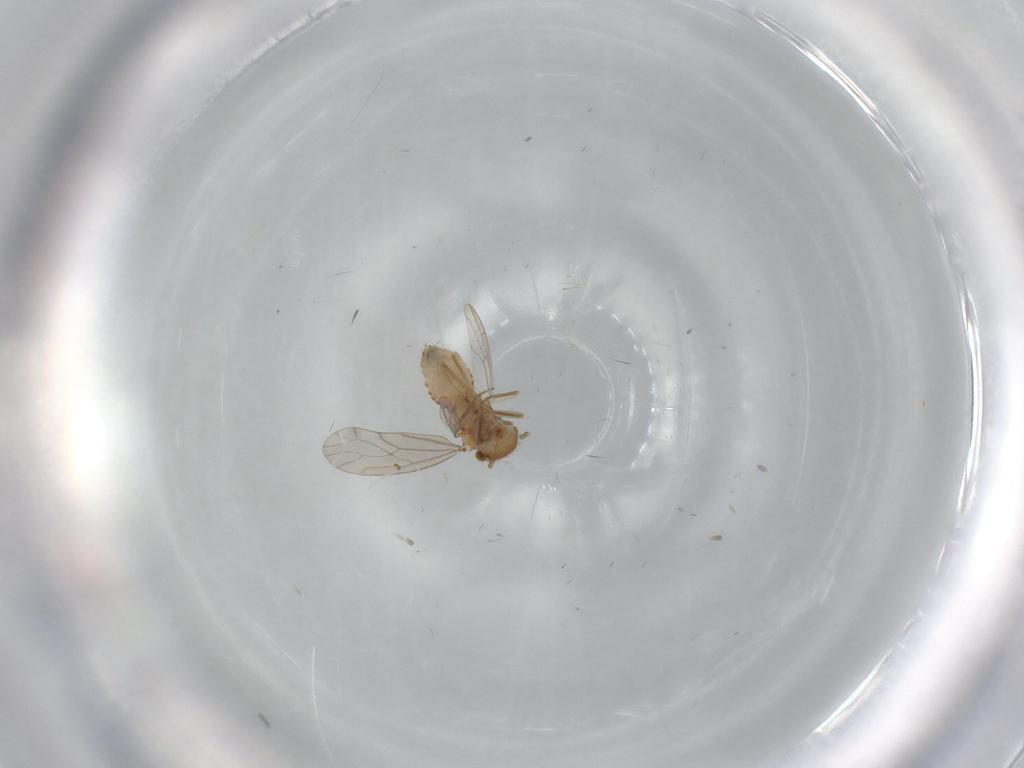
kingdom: Animalia
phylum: Arthropoda
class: Insecta
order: Psocodea
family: Ectopsocidae
